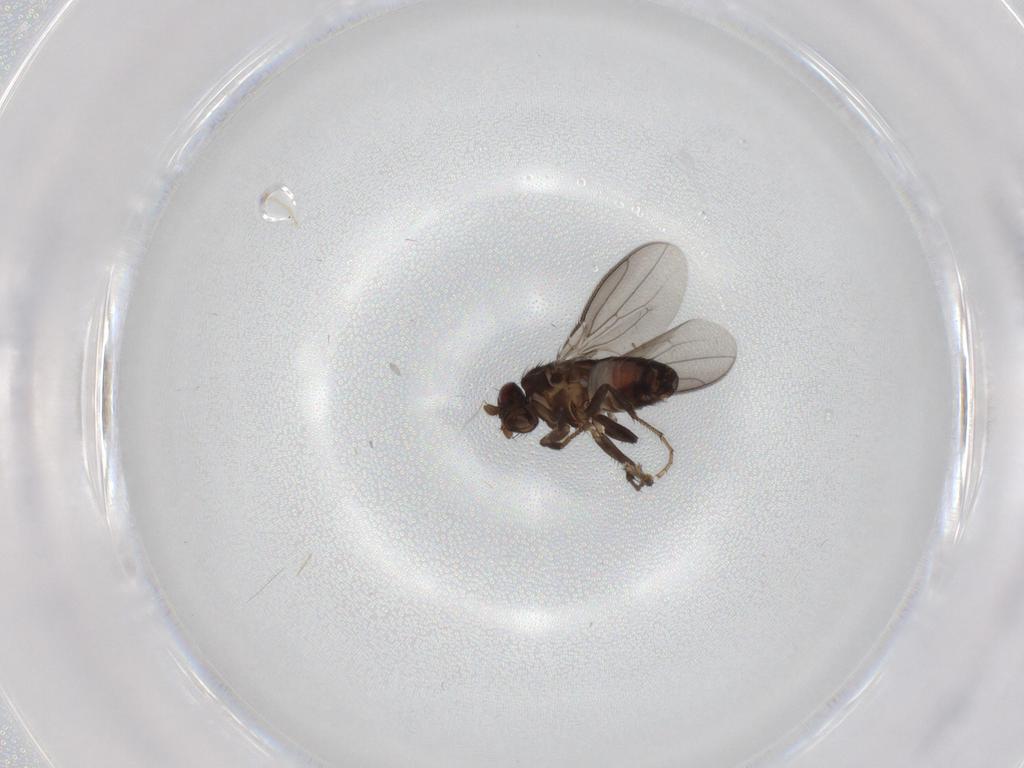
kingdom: Animalia
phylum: Arthropoda
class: Insecta
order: Diptera
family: Sphaeroceridae
